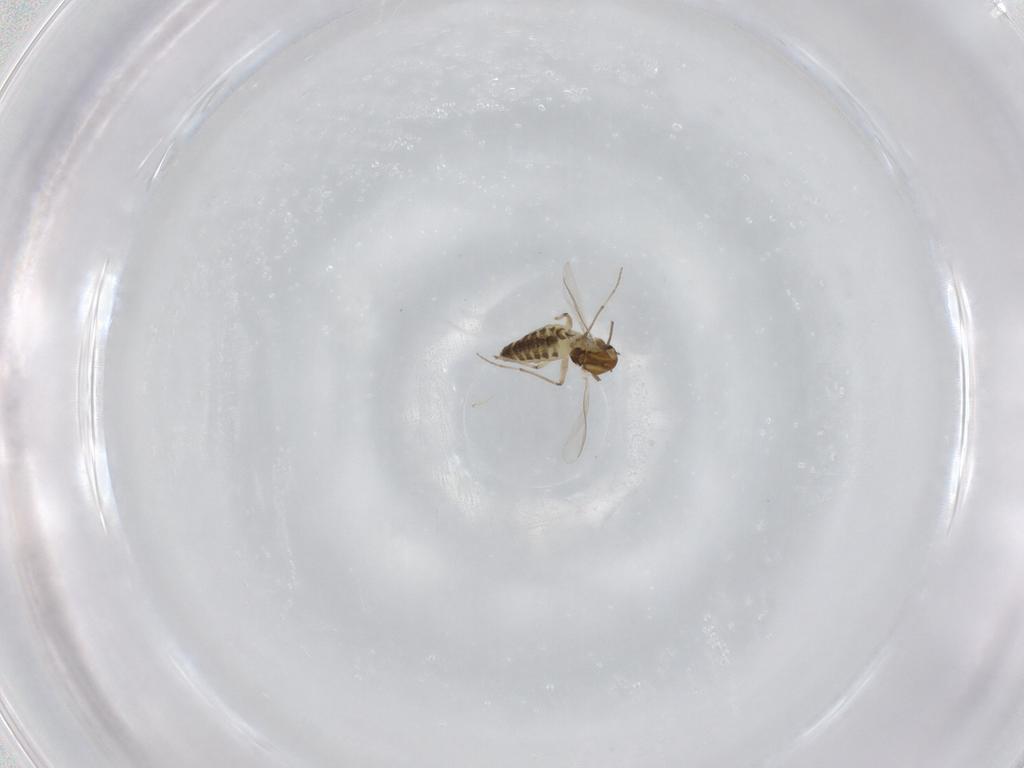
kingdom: Animalia
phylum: Arthropoda
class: Insecta
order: Diptera
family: Chironomidae
